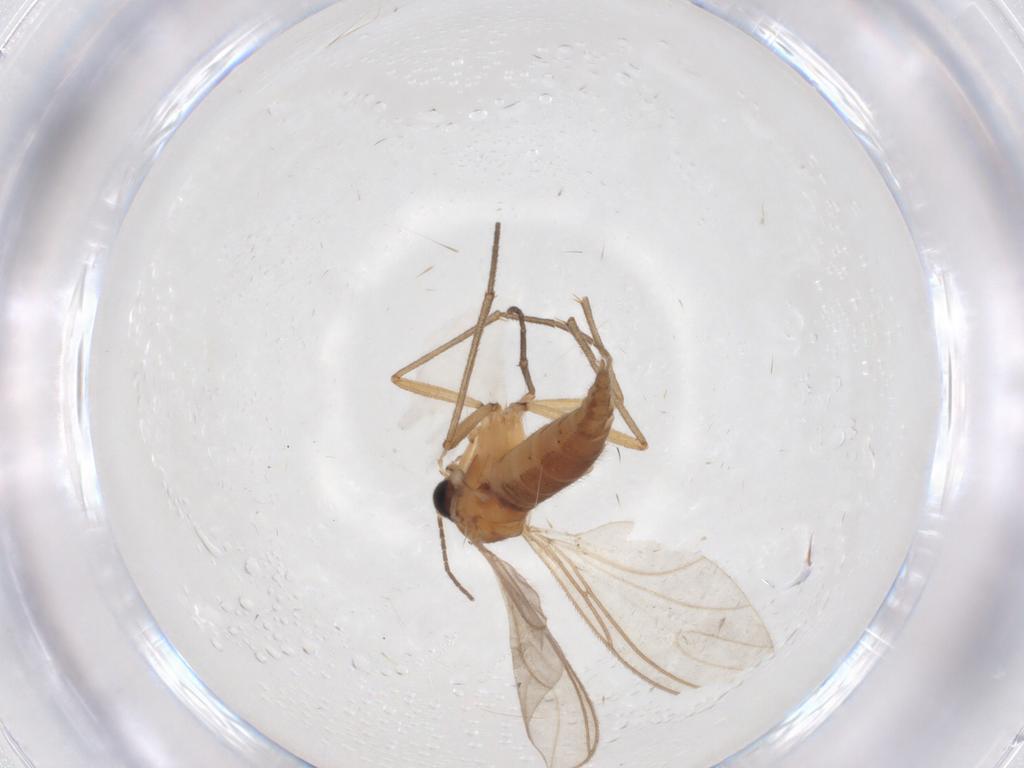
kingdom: Animalia
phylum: Arthropoda
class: Insecta
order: Diptera
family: Sciaridae
